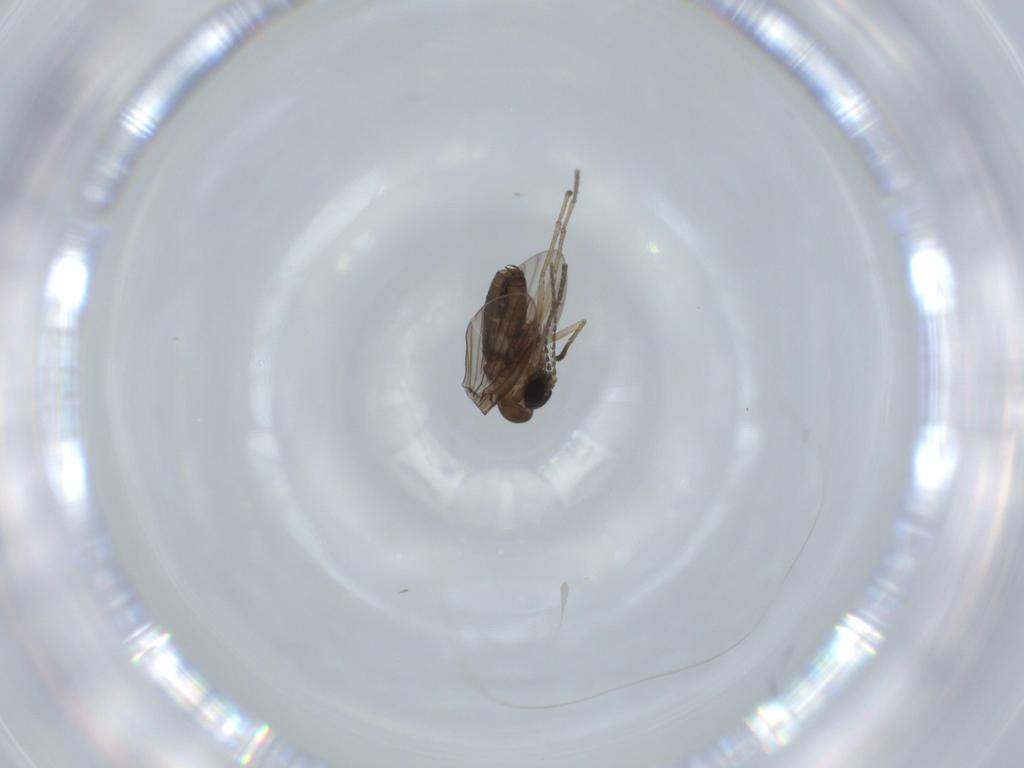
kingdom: Animalia
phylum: Arthropoda
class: Insecta
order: Diptera
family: Psychodidae
